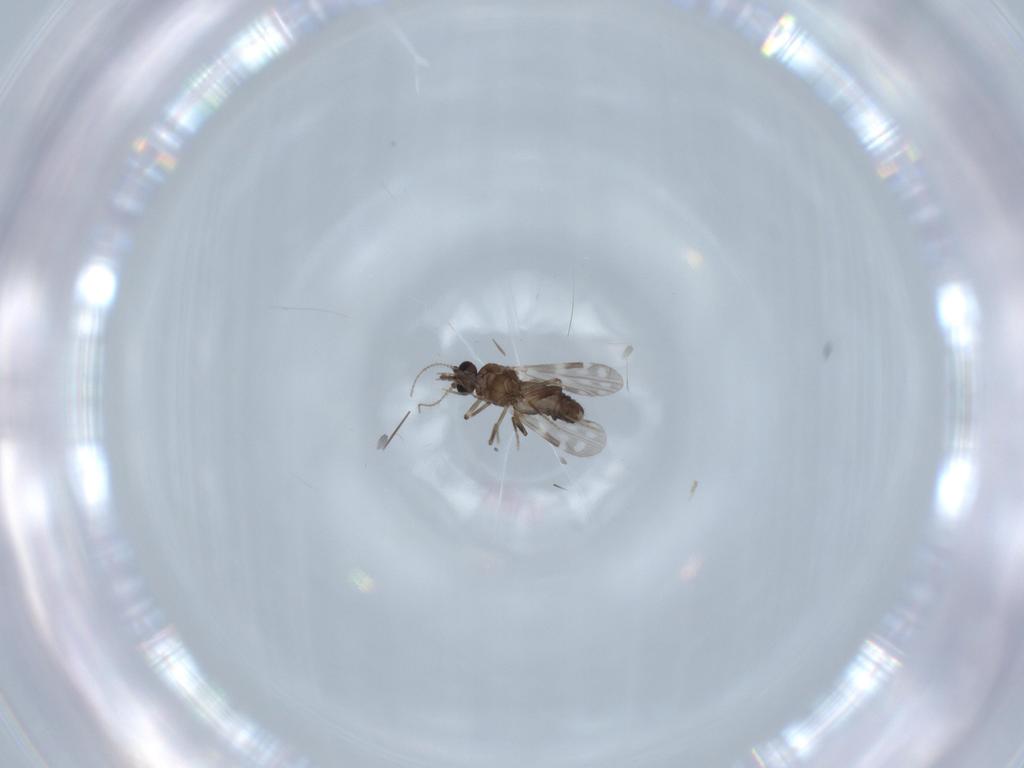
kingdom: Animalia
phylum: Arthropoda
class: Insecta
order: Diptera
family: Ceratopogonidae
